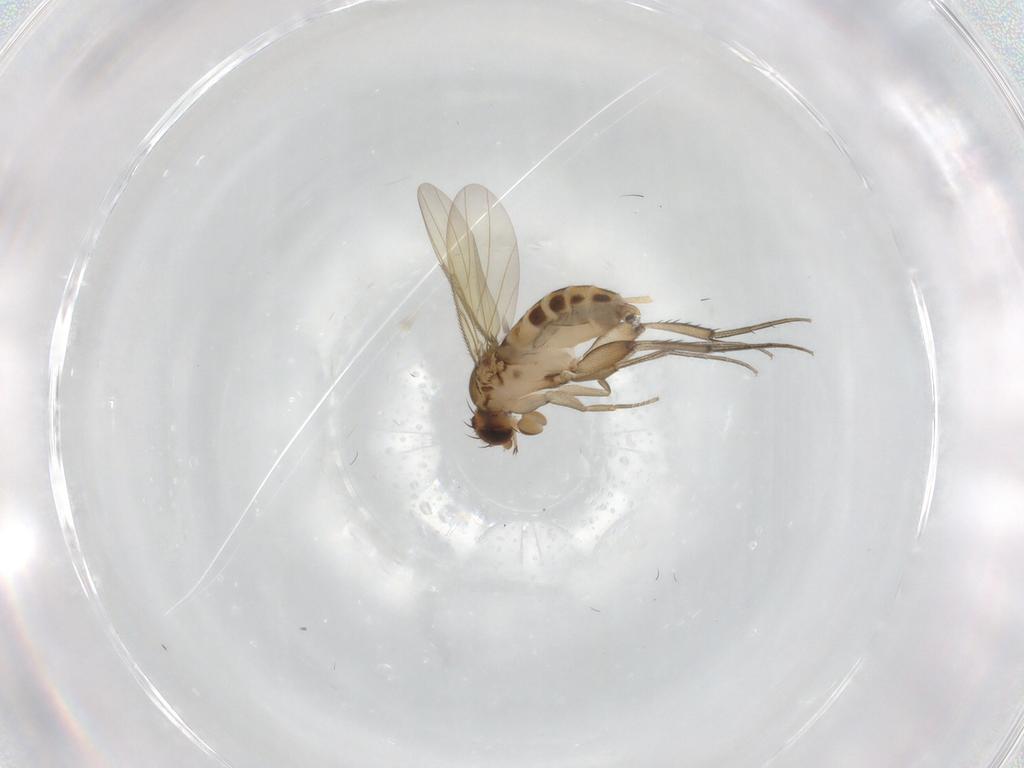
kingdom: Animalia
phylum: Arthropoda
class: Insecta
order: Diptera
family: Phoridae
